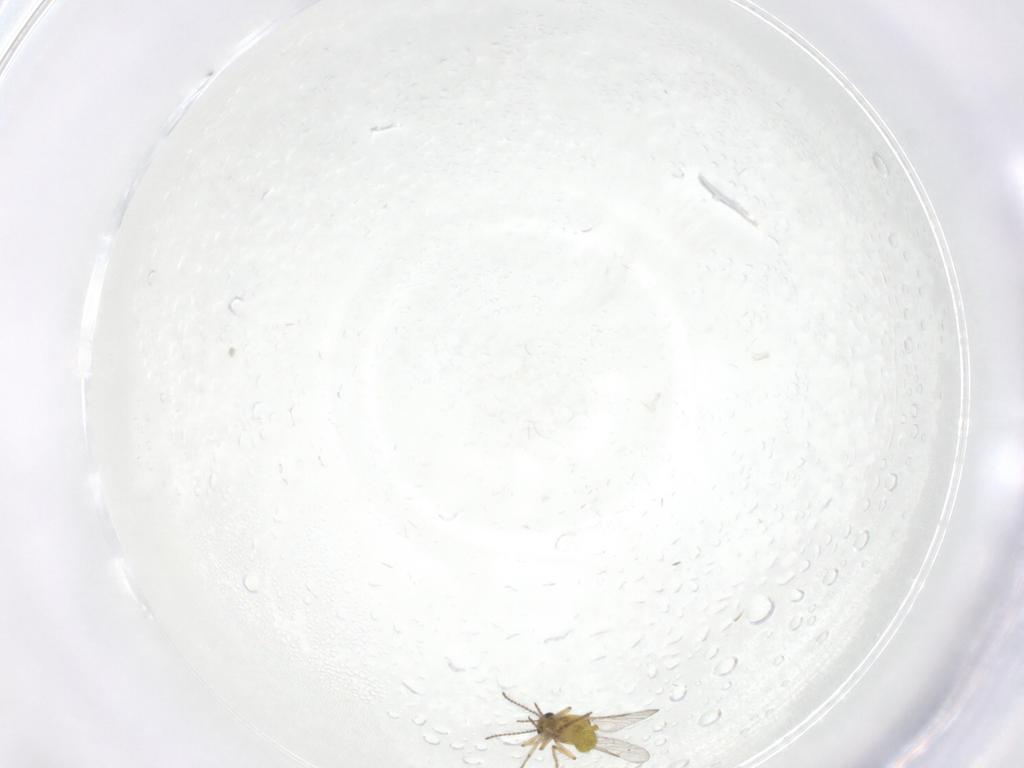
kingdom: Animalia
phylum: Arthropoda
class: Insecta
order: Diptera
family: Ceratopogonidae
